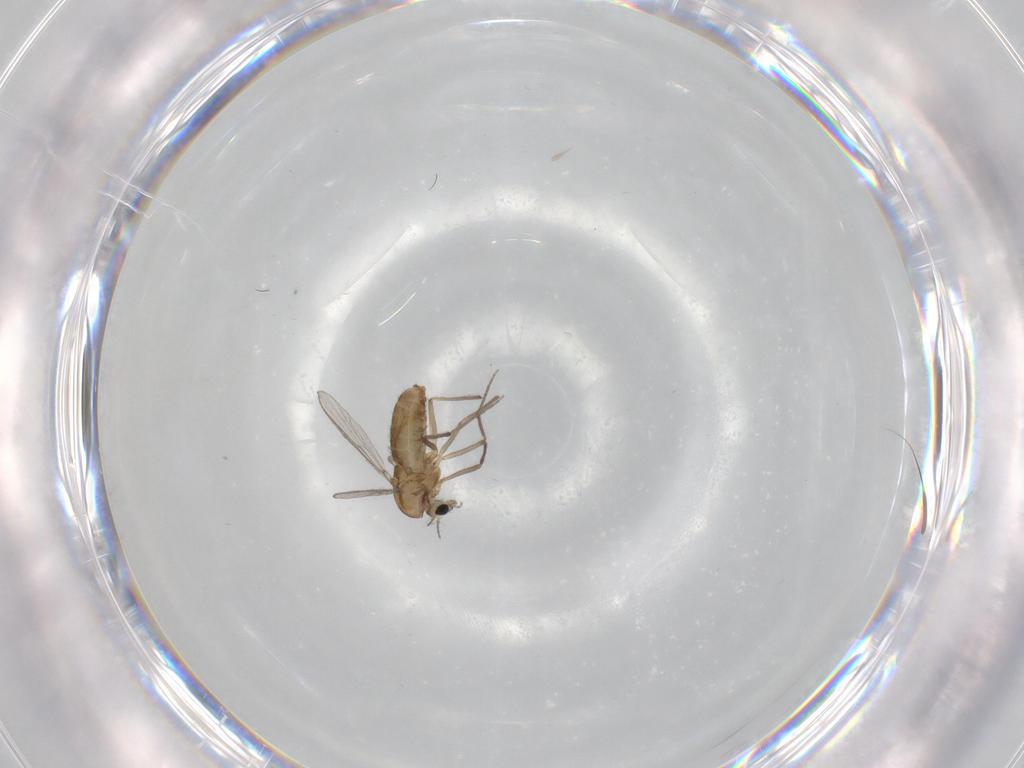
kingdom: Animalia
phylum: Arthropoda
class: Insecta
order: Diptera
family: Chironomidae
